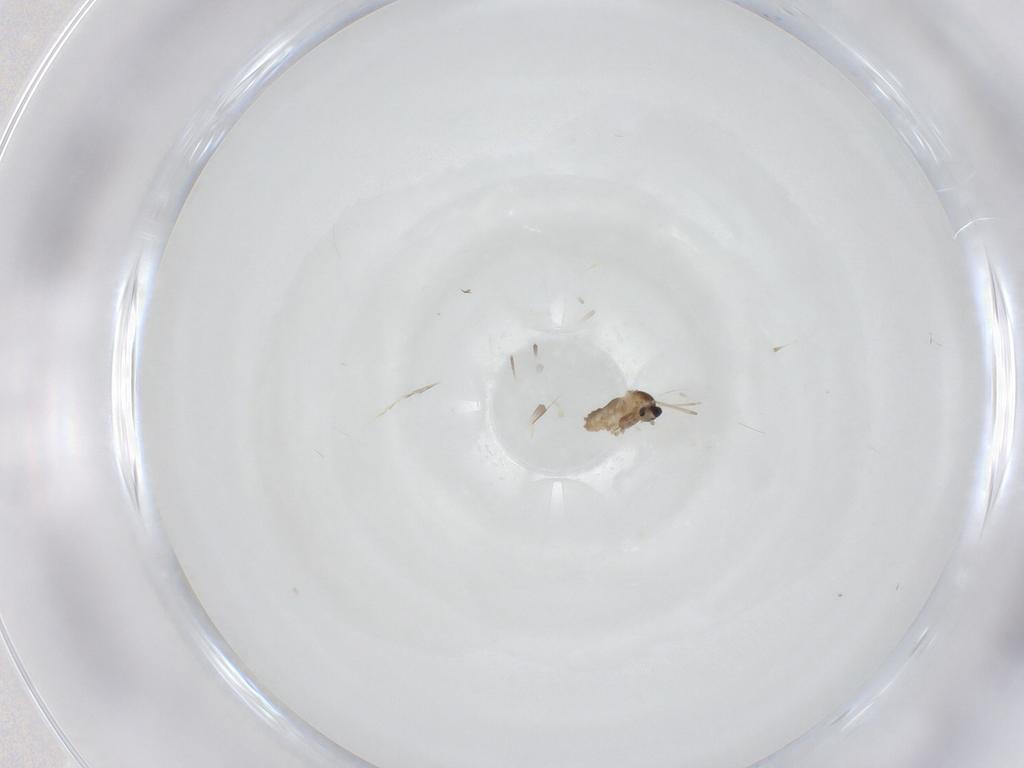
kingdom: Animalia
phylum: Arthropoda
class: Insecta
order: Diptera
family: Cecidomyiidae
